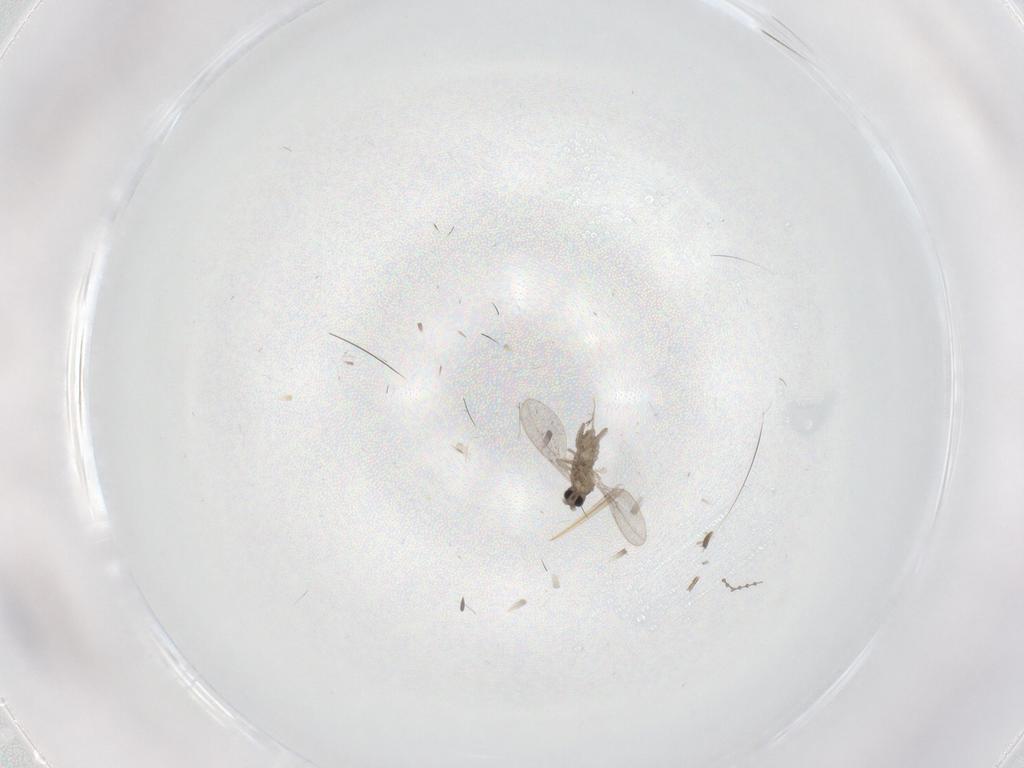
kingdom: Animalia
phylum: Arthropoda
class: Insecta
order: Diptera
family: Cecidomyiidae
